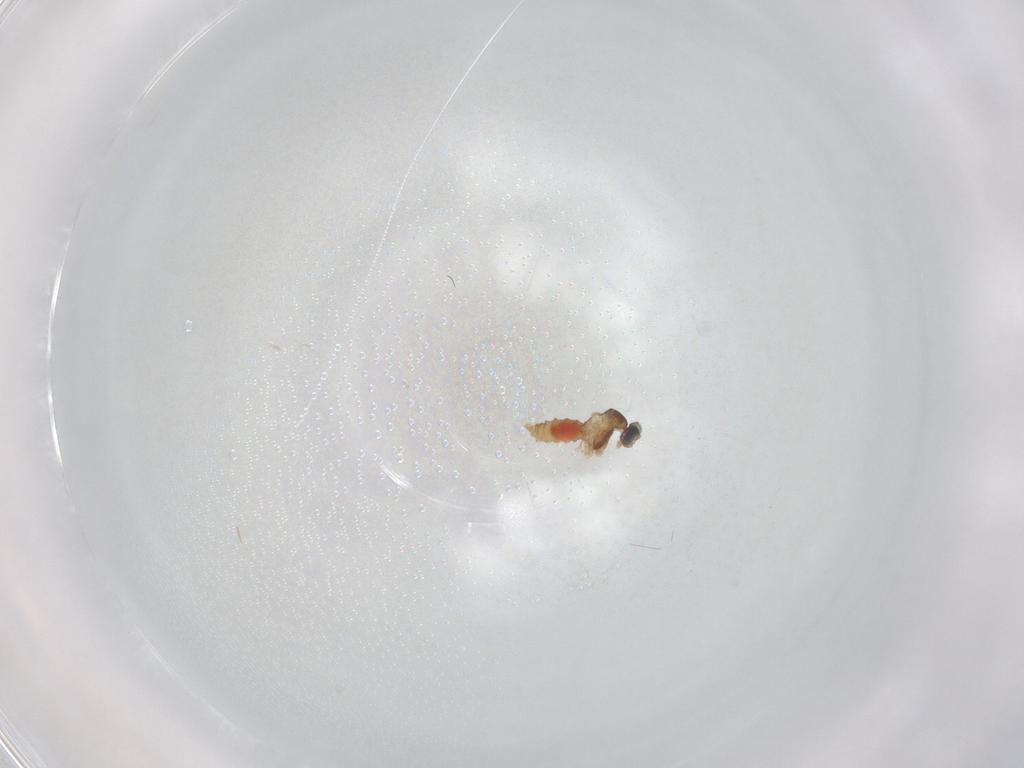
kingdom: Animalia
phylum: Arthropoda
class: Insecta
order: Diptera
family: Cecidomyiidae
